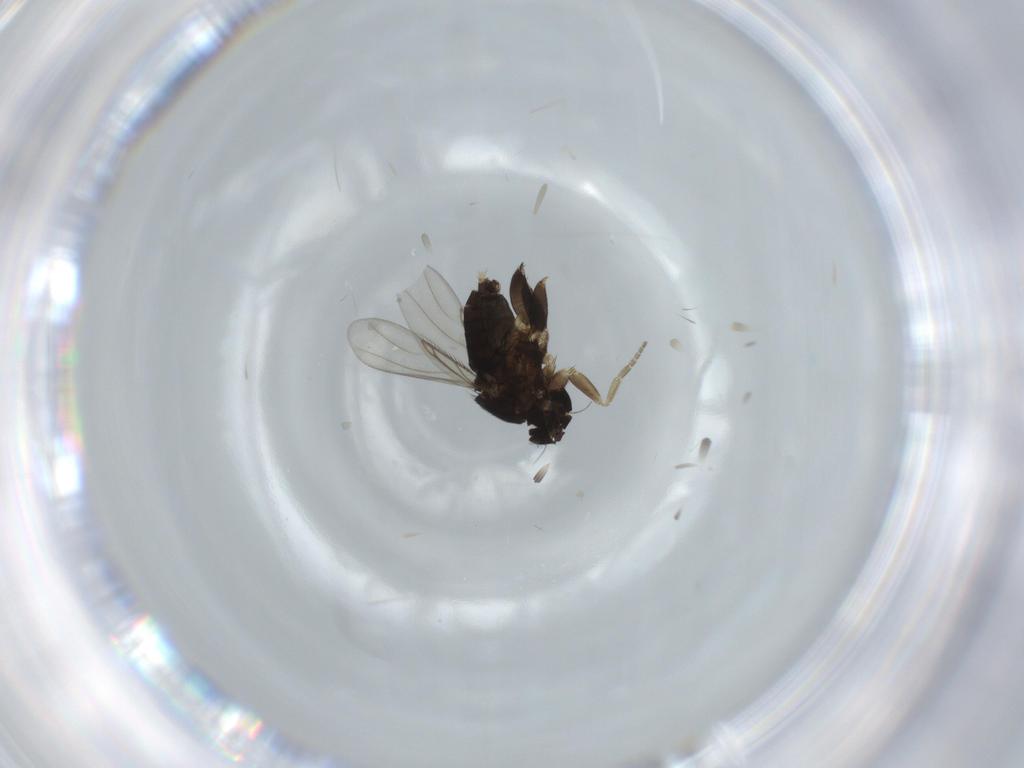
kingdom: Animalia
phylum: Arthropoda
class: Insecta
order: Diptera
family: Phoridae
